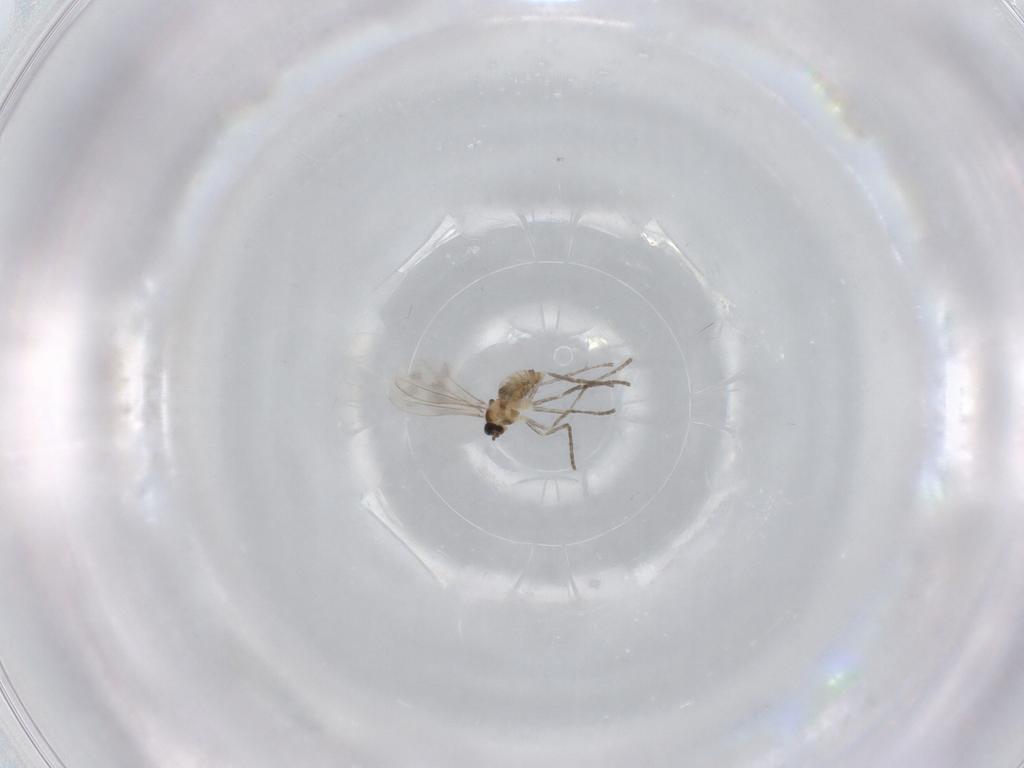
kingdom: Animalia
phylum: Arthropoda
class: Insecta
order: Diptera
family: Cecidomyiidae
